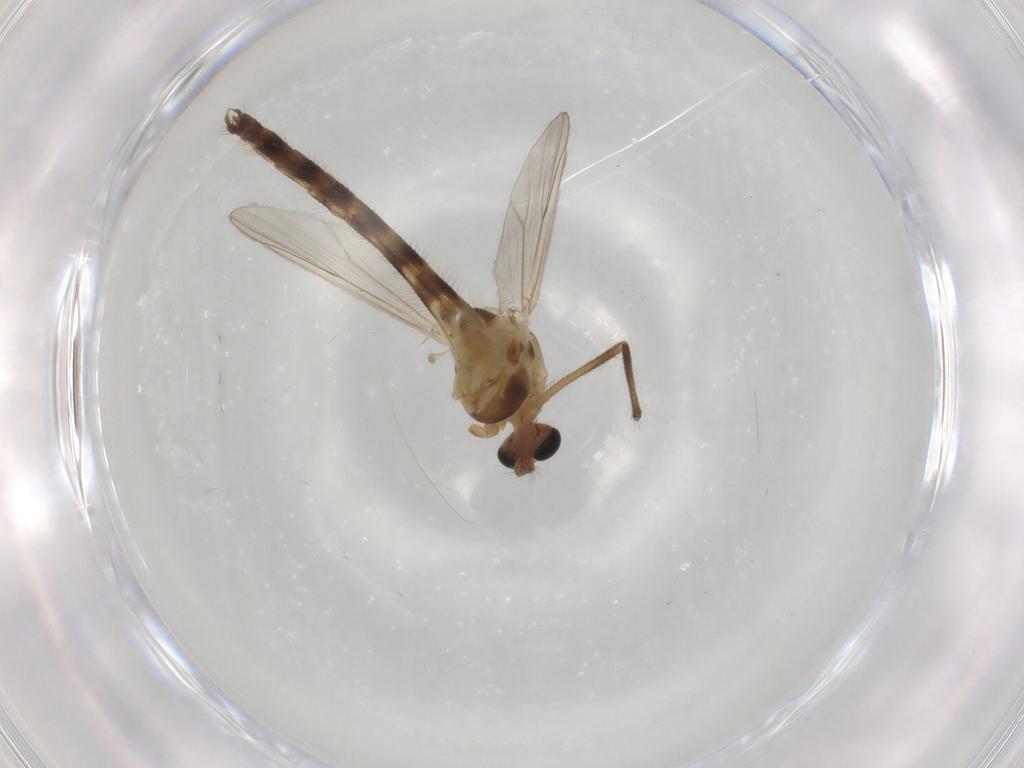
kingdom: Animalia
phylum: Arthropoda
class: Insecta
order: Diptera
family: Chironomidae
